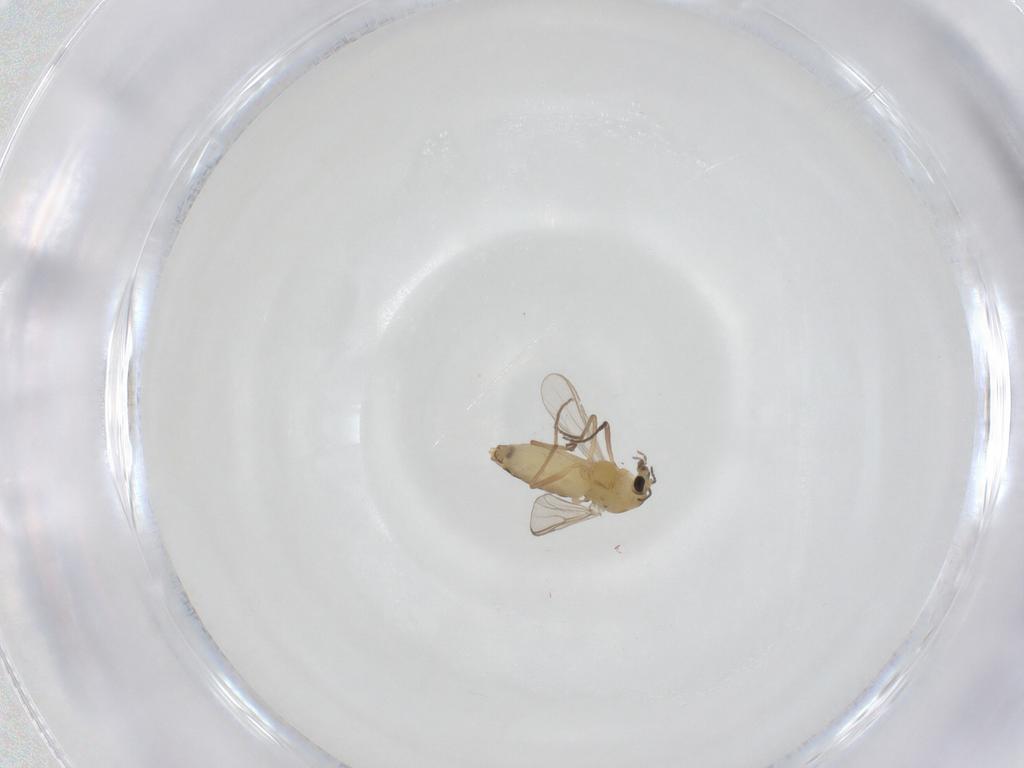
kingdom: Animalia
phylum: Arthropoda
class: Insecta
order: Diptera
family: Chironomidae
